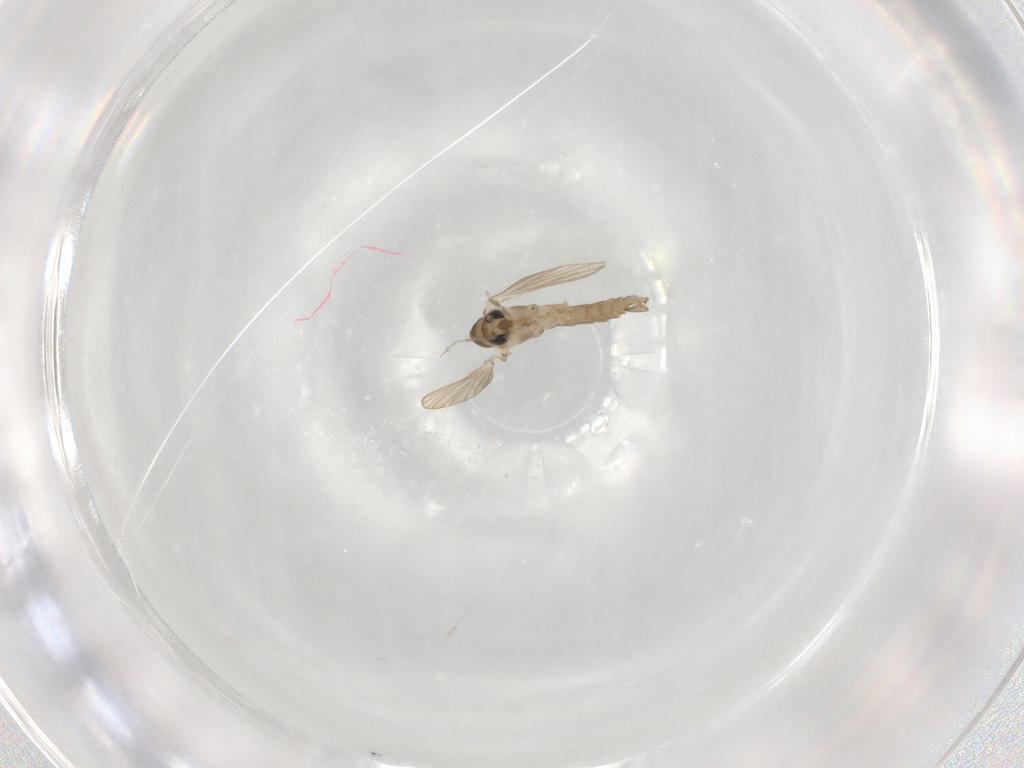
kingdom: Animalia
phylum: Arthropoda
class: Insecta
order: Diptera
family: Psychodidae
